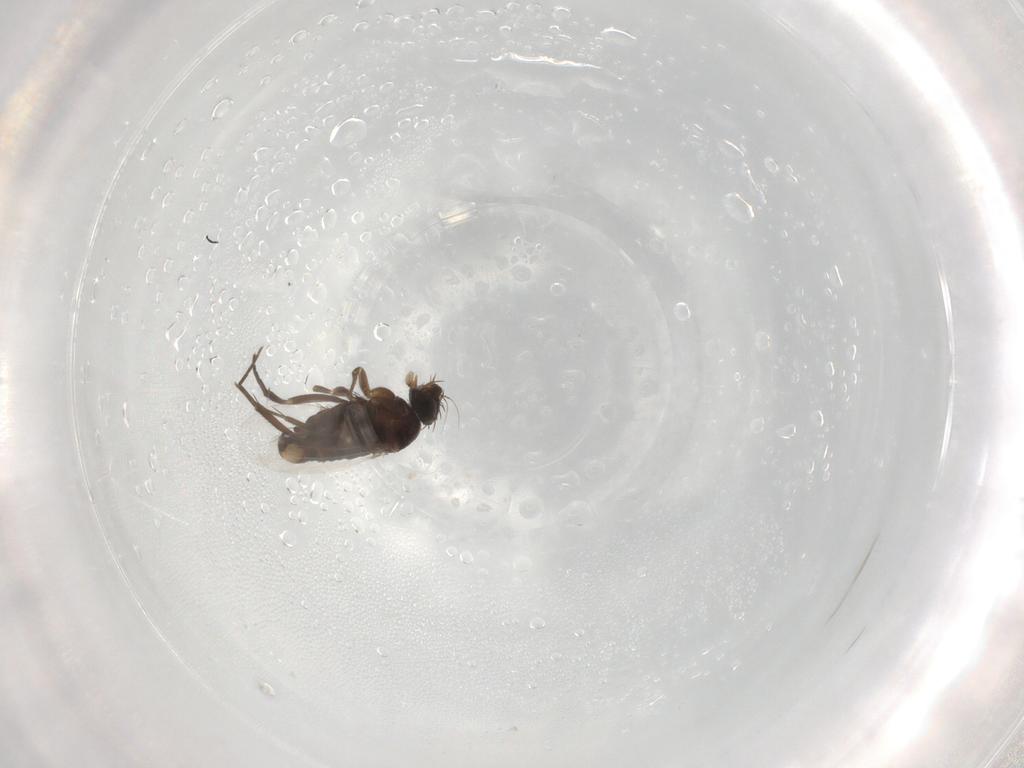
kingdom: Animalia
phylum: Arthropoda
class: Insecta
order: Diptera
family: Phoridae
